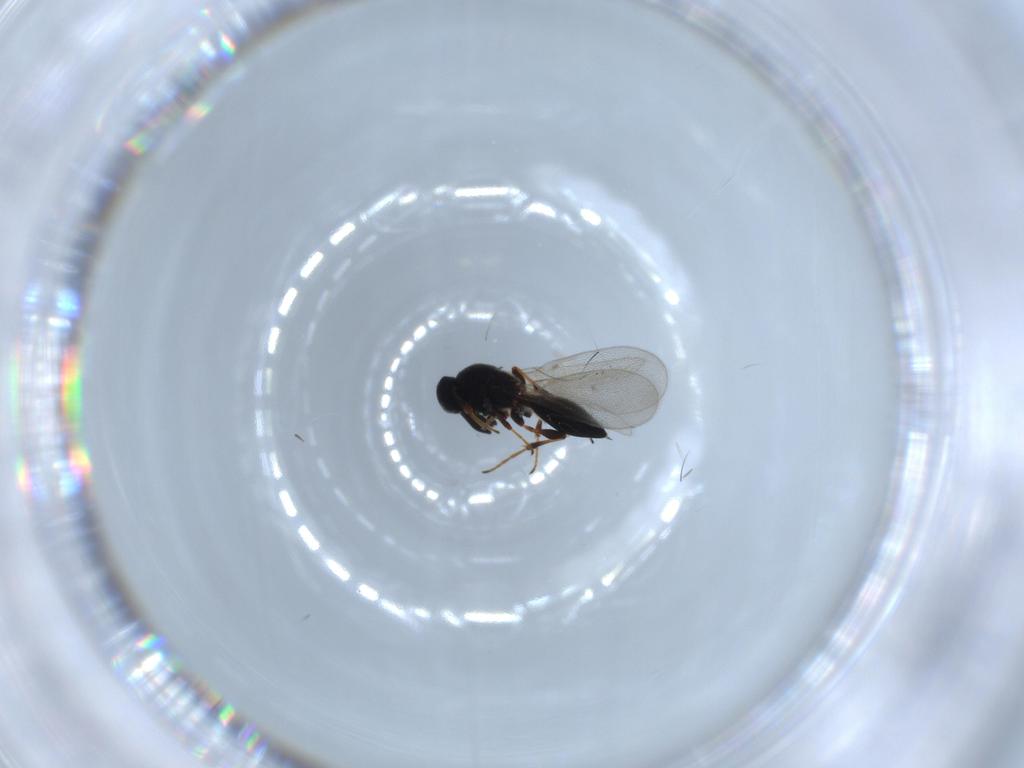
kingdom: Animalia
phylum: Arthropoda
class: Insecta
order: Hymenoptera
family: Platygastridae
